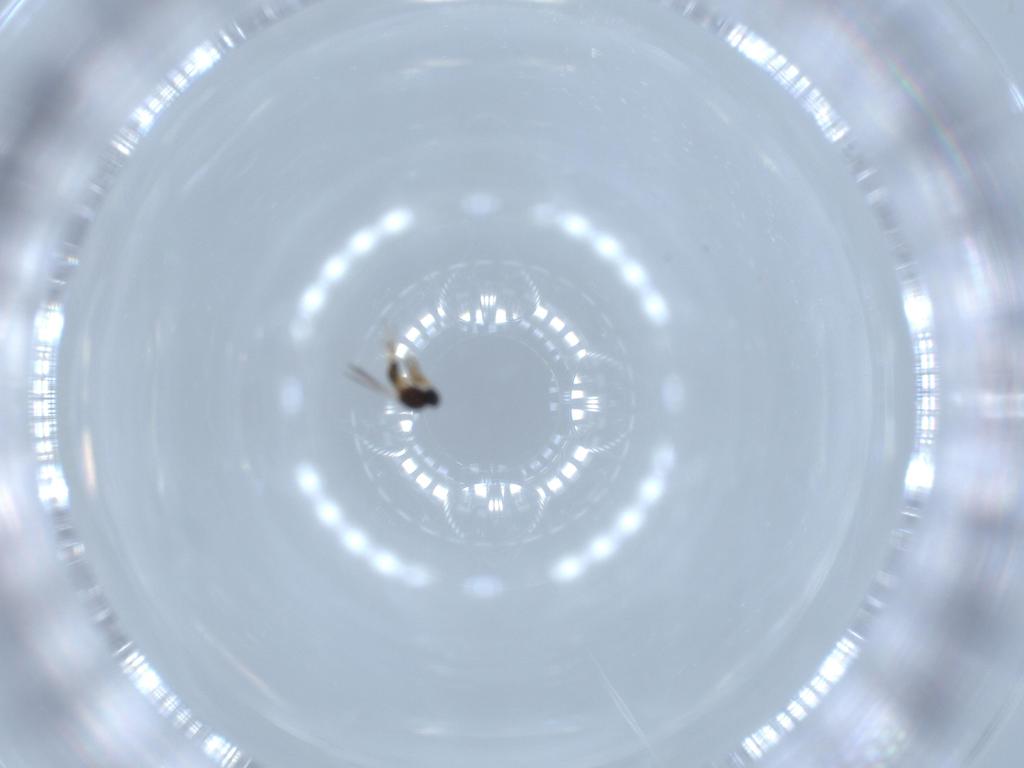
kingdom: Animalia
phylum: Arthropoda
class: Insecta
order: Hymenoptera
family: Platygastridae
